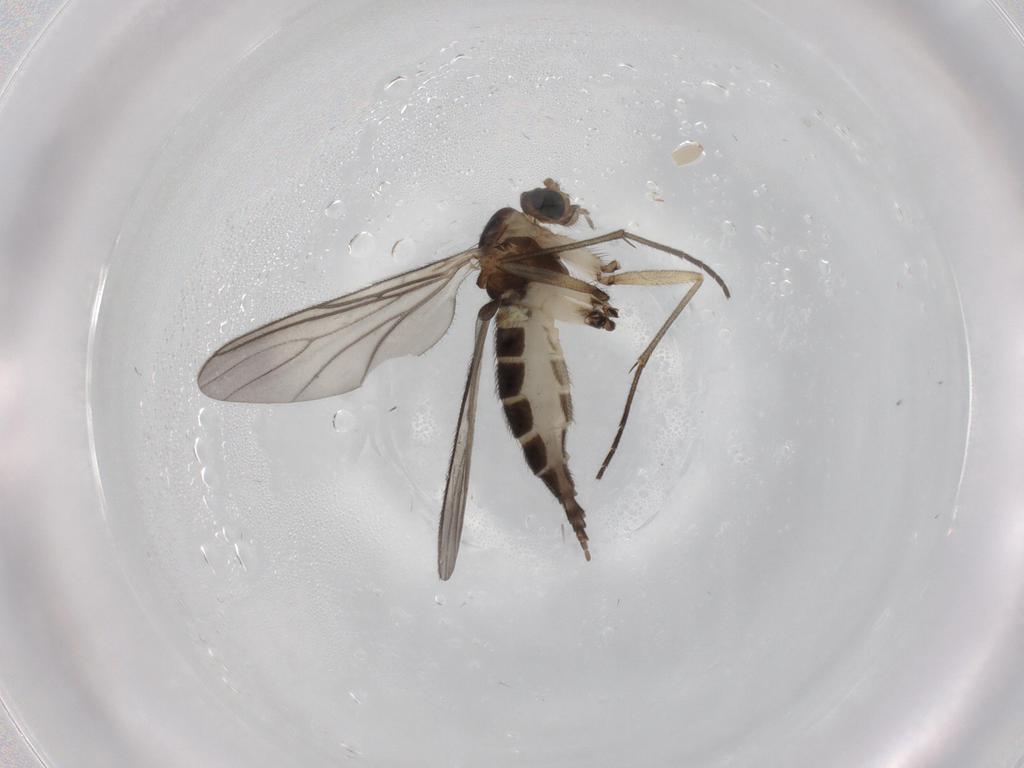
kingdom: Animalia
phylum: Arthropoda
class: Insecta
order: Diptera
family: Sciaridae
